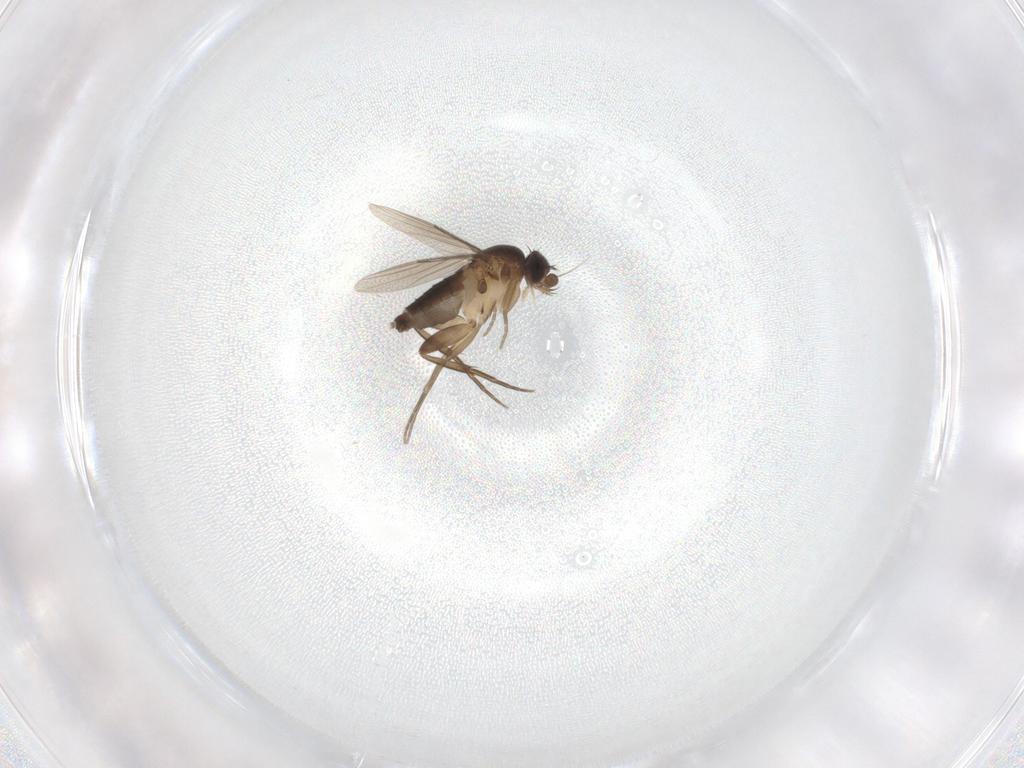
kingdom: Animalia
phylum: Arthropoda
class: Insecta
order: Diptera
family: Phoridae
